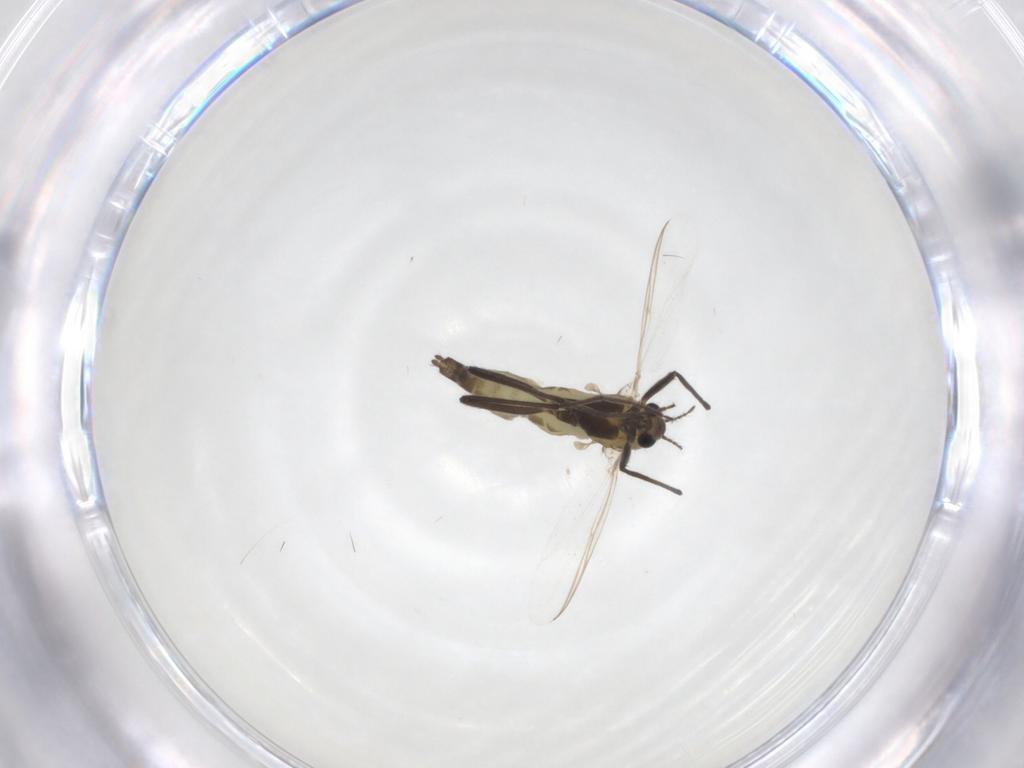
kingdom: Animalia
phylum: Arthropoda
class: Insecta
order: Diptera
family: Chironomidae
